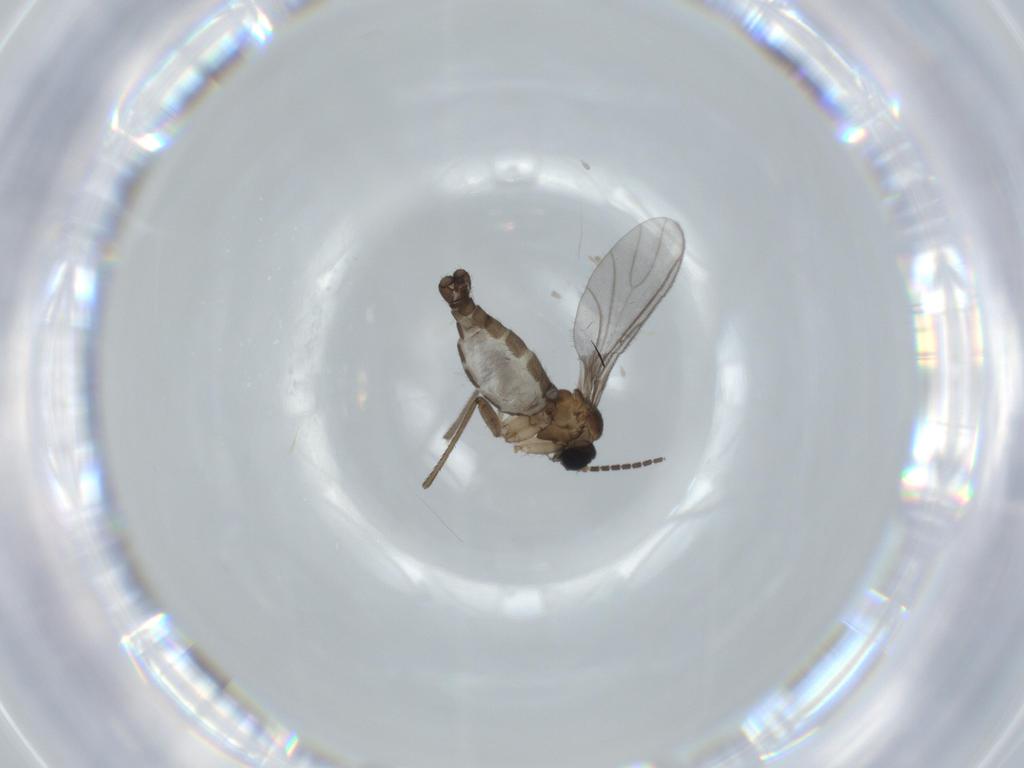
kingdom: Animalia
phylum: Arthropoda
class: Insecta
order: Diptera
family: Sciaridae
